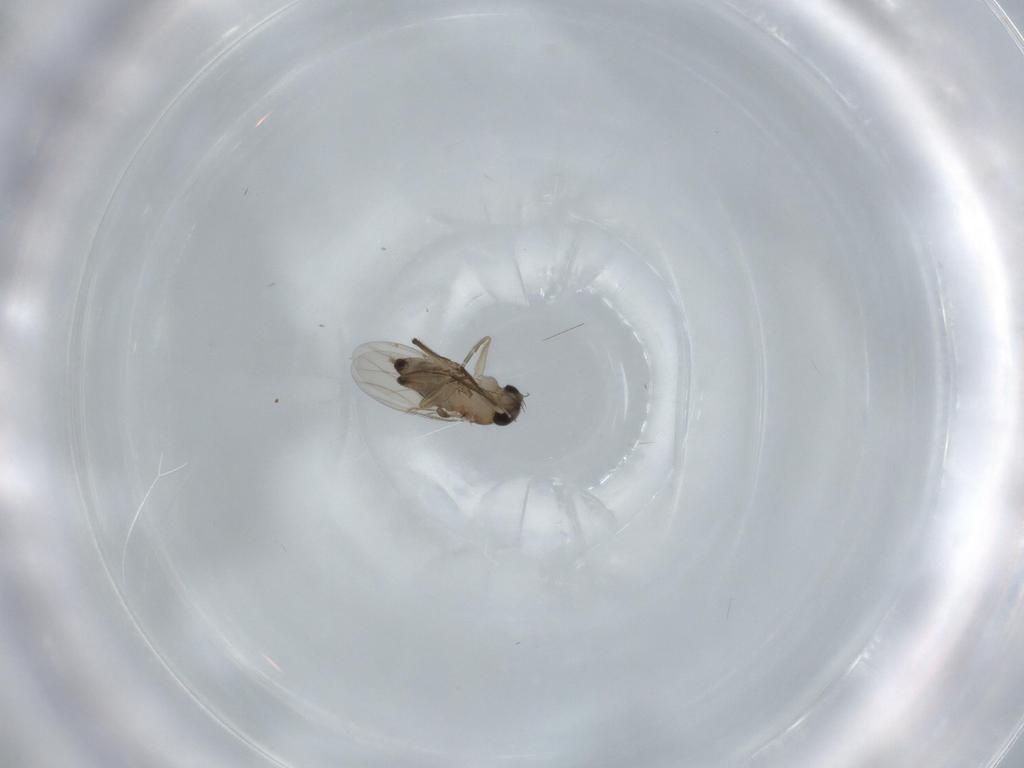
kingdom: Animalia
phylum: Arthropoda
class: Insecta
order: Diptera
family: Phoridae
